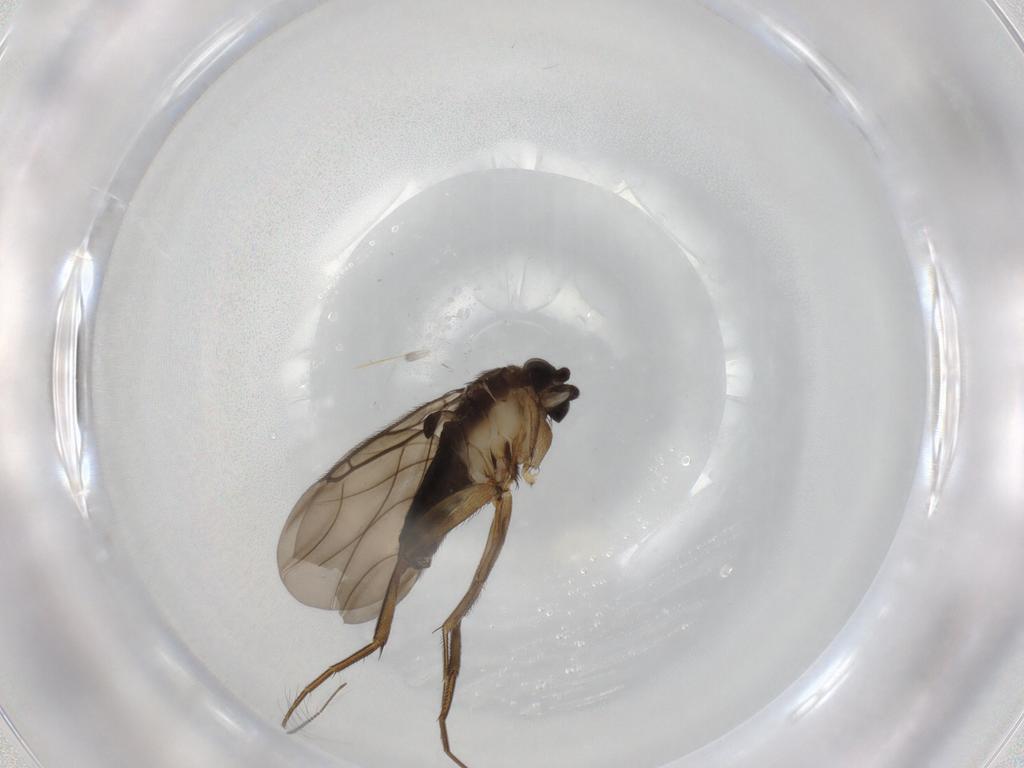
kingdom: Animalia
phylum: Arthropoda
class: Insecta
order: Diptera
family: Phoridae
